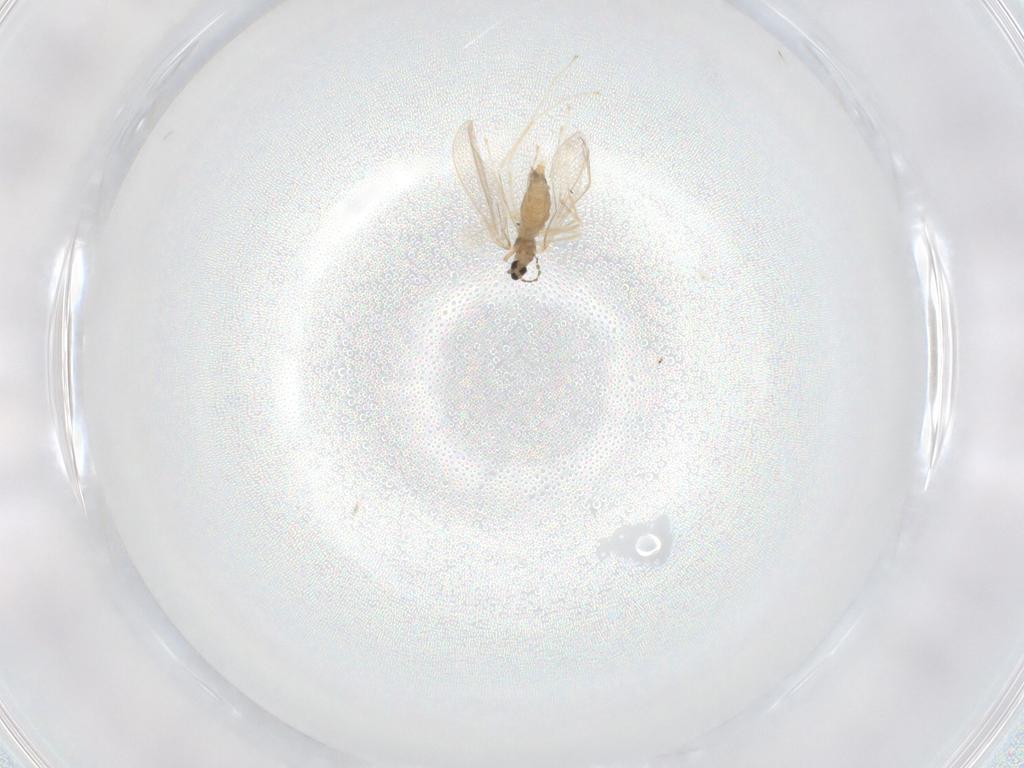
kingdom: Animalia
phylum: Arthropoda
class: Insecta
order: Diptera
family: Cecidomyiidae
